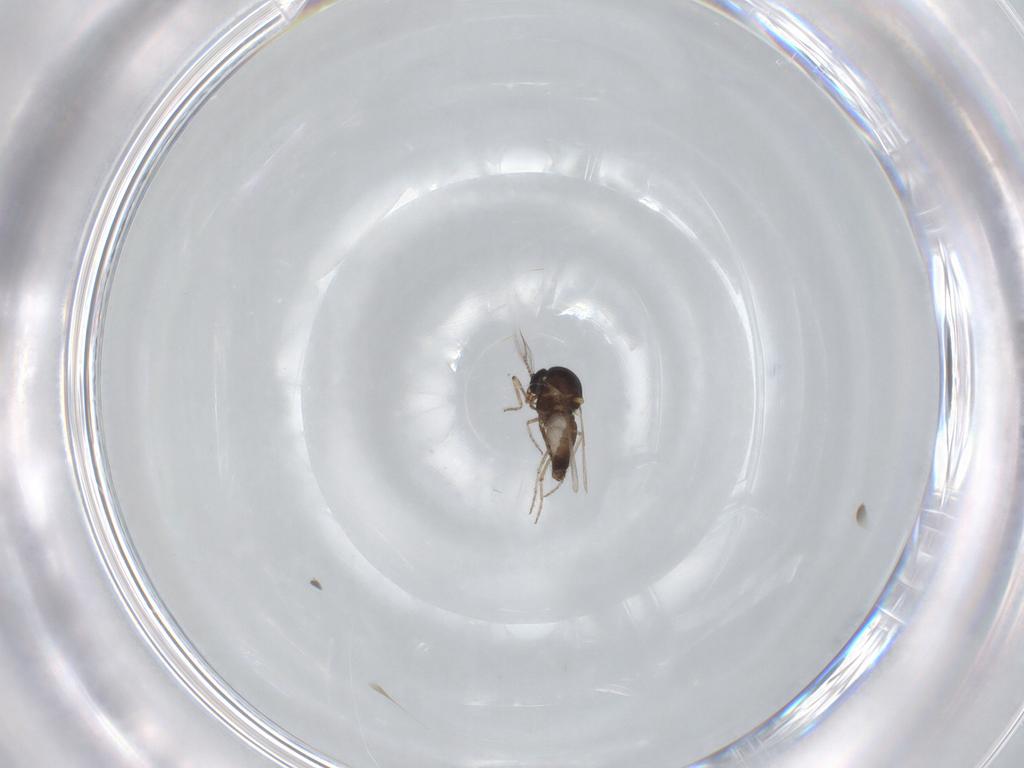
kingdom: Animalia
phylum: Arthropoda
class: Insecta
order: Diptera
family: Ceratopogonidae
